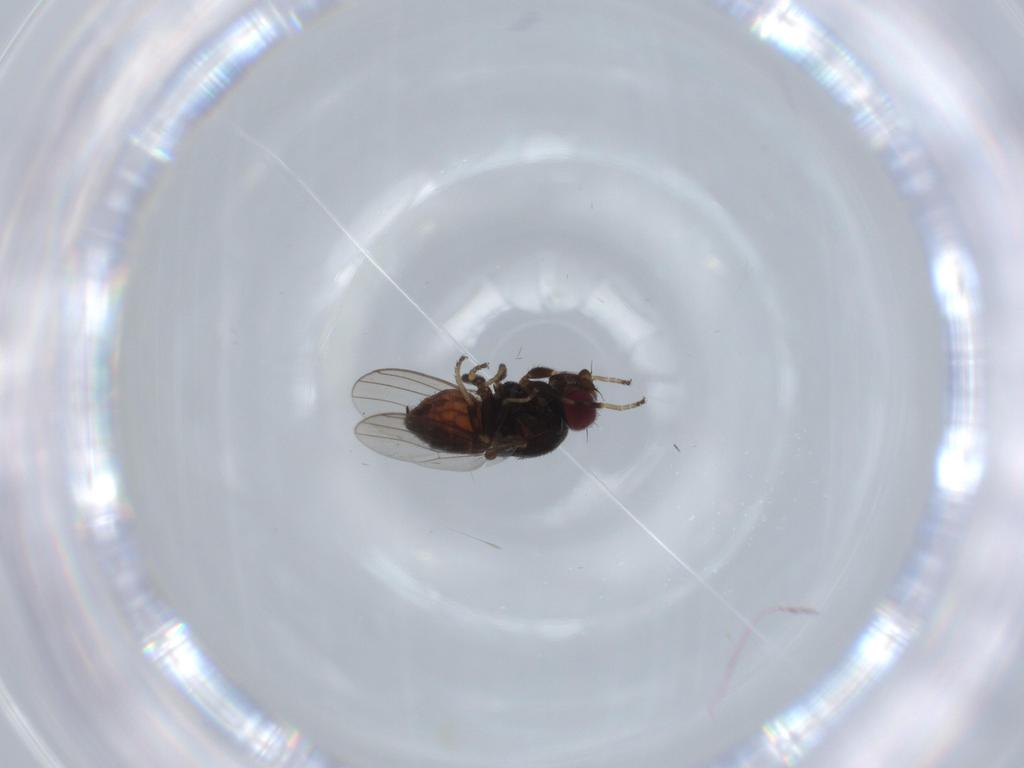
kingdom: Animalia
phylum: Arthropoda
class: Insecta
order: Diptera
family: Chloropidae
